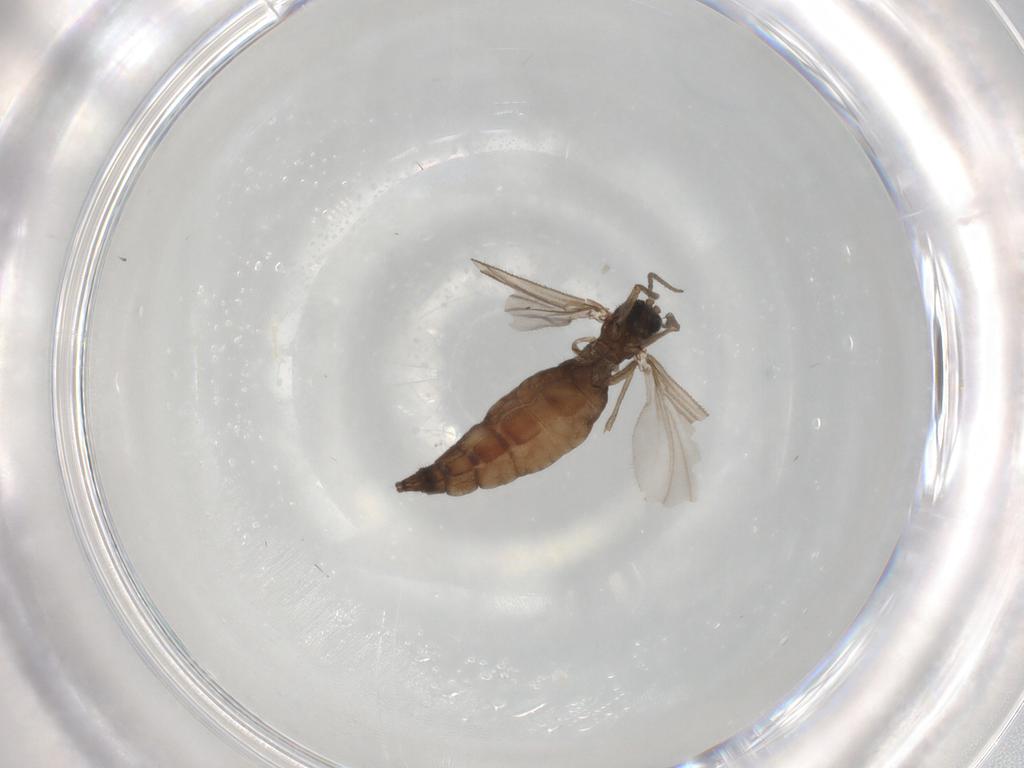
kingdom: Animalia
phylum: Arthropoda
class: Insecta
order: Diptera
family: Sciaridae
